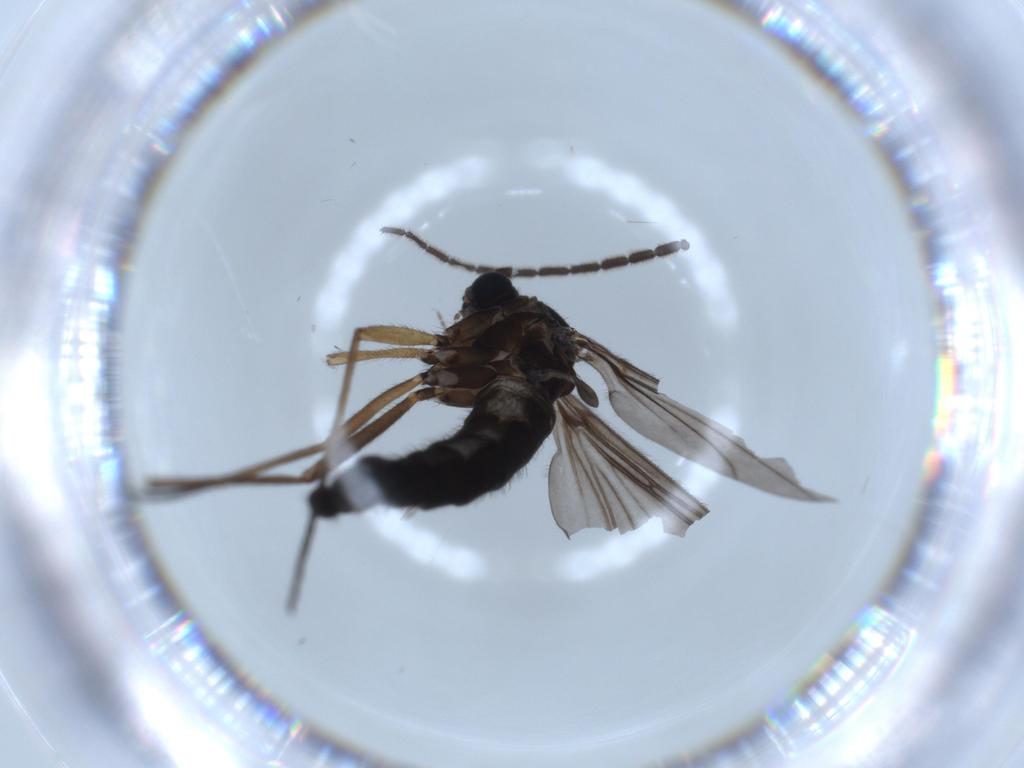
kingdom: Animalia
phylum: Arthropoda
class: Insecta
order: Diptera
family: Sciaridae
